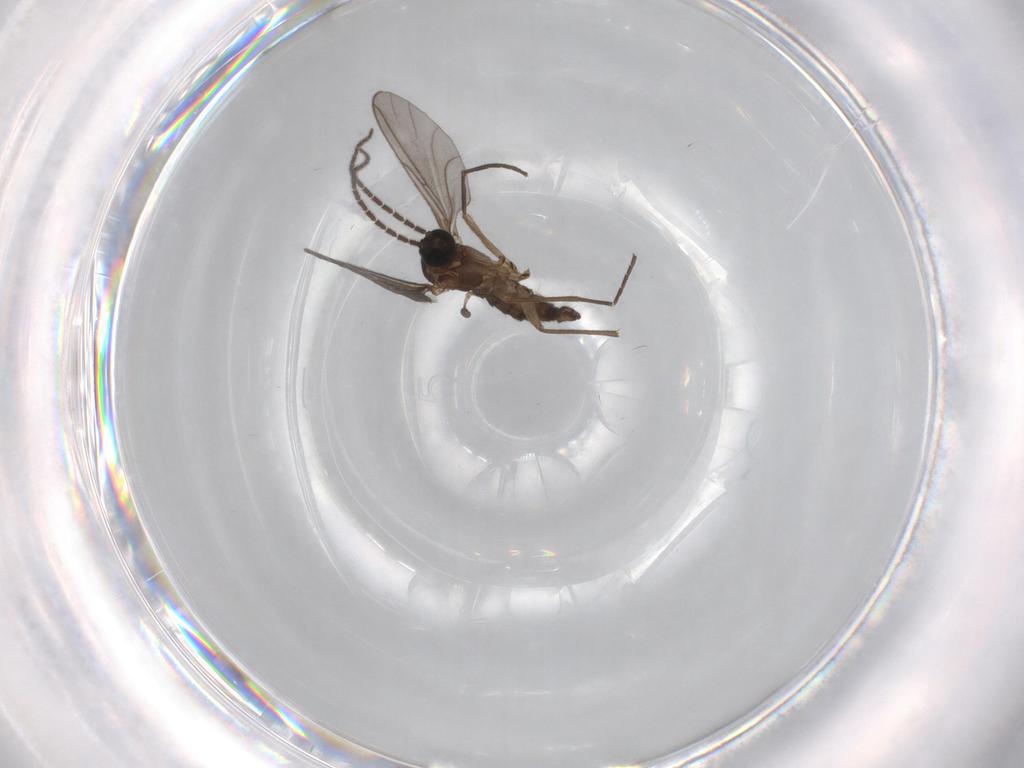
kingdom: Animalia
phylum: Arthropoda
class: Insecta
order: Diptera
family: Sciaridae
